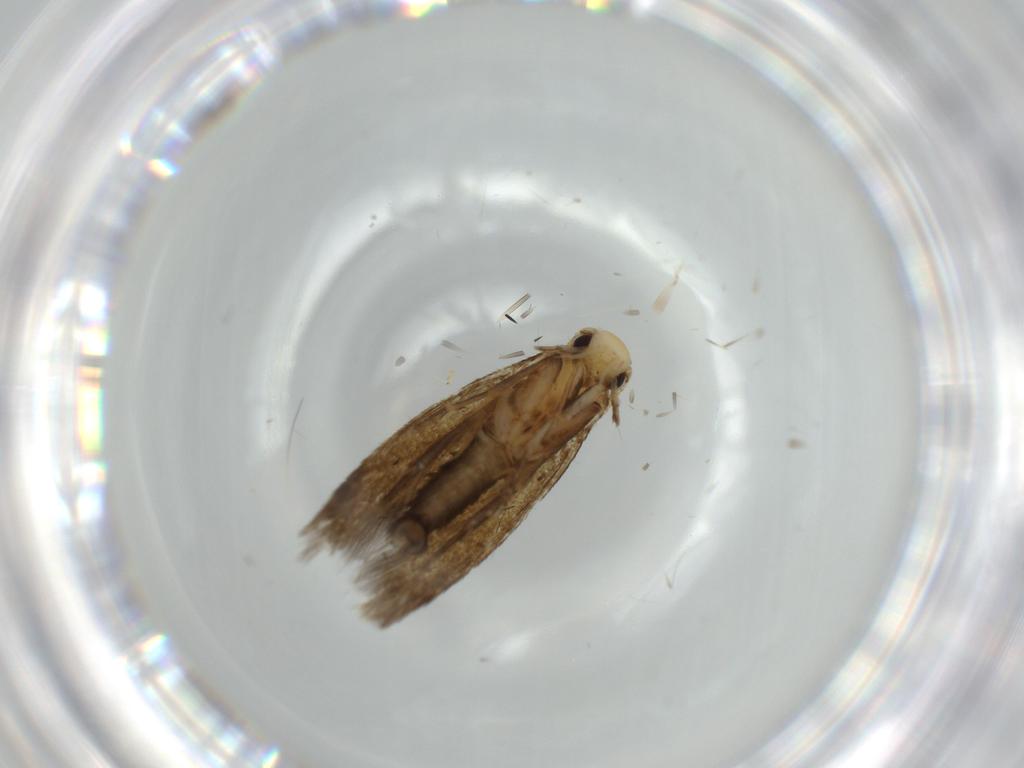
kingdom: Animalia
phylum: Arthropoda
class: Insecta
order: Lepidoptera
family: Tineidae
